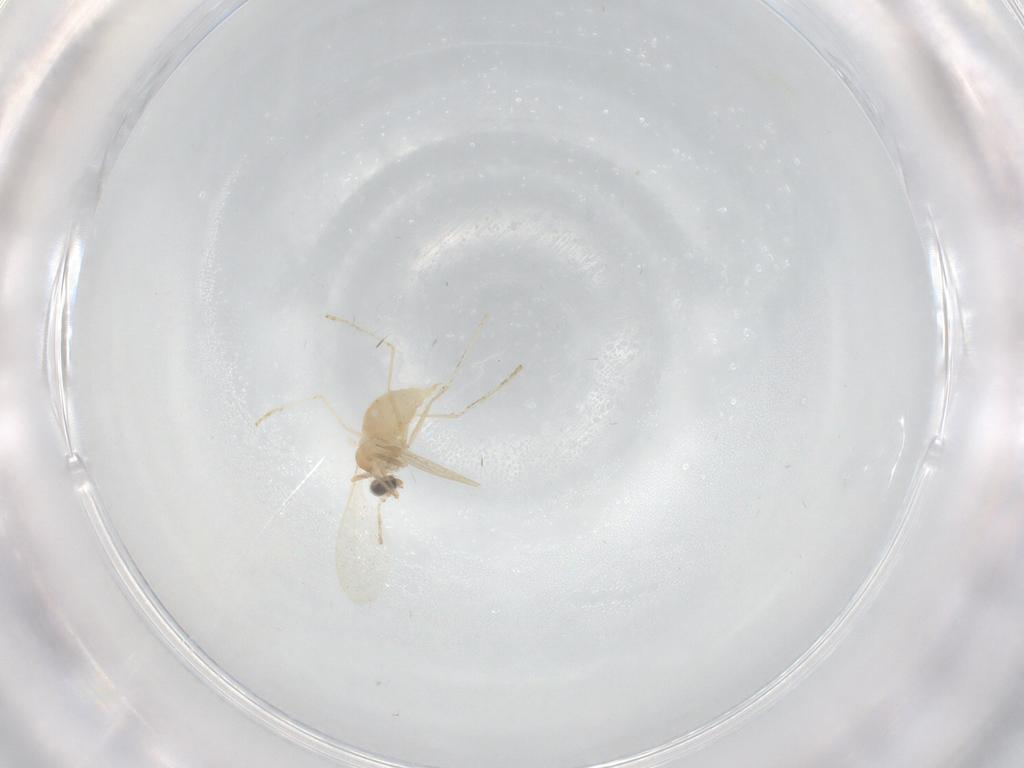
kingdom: Animalia
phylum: Arthropoda
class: Insecta
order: Diptera
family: Cecidomyiidae
